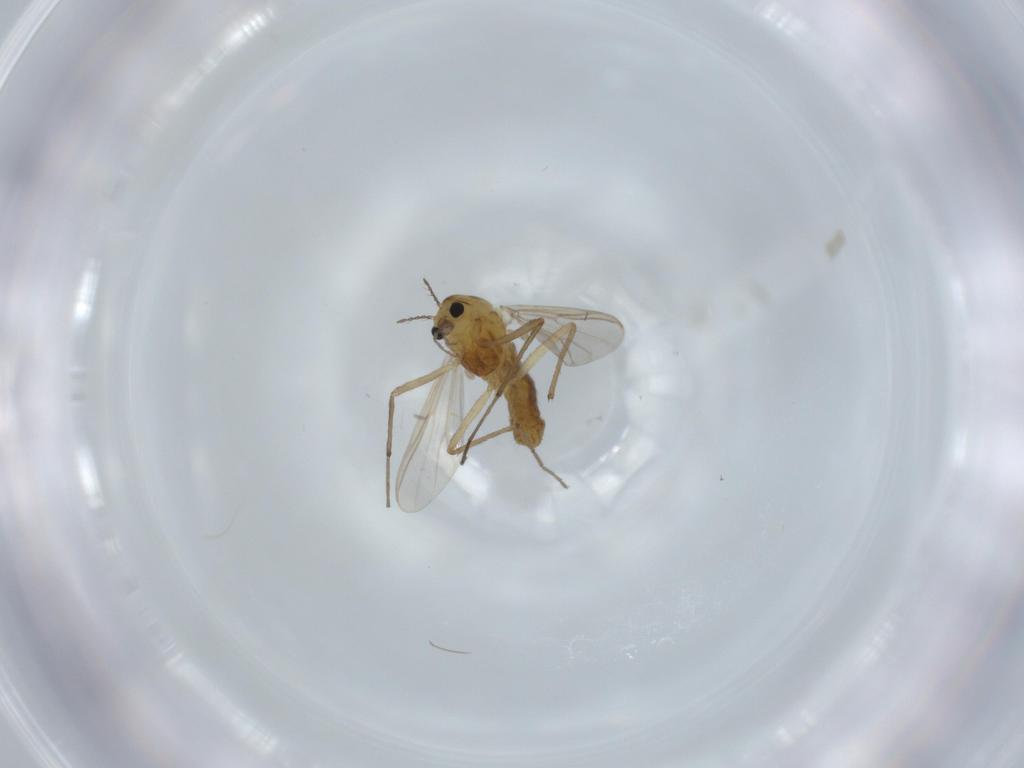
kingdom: Animalia
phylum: Arthropoda
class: Insecta
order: Diptera
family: Chironomidae
